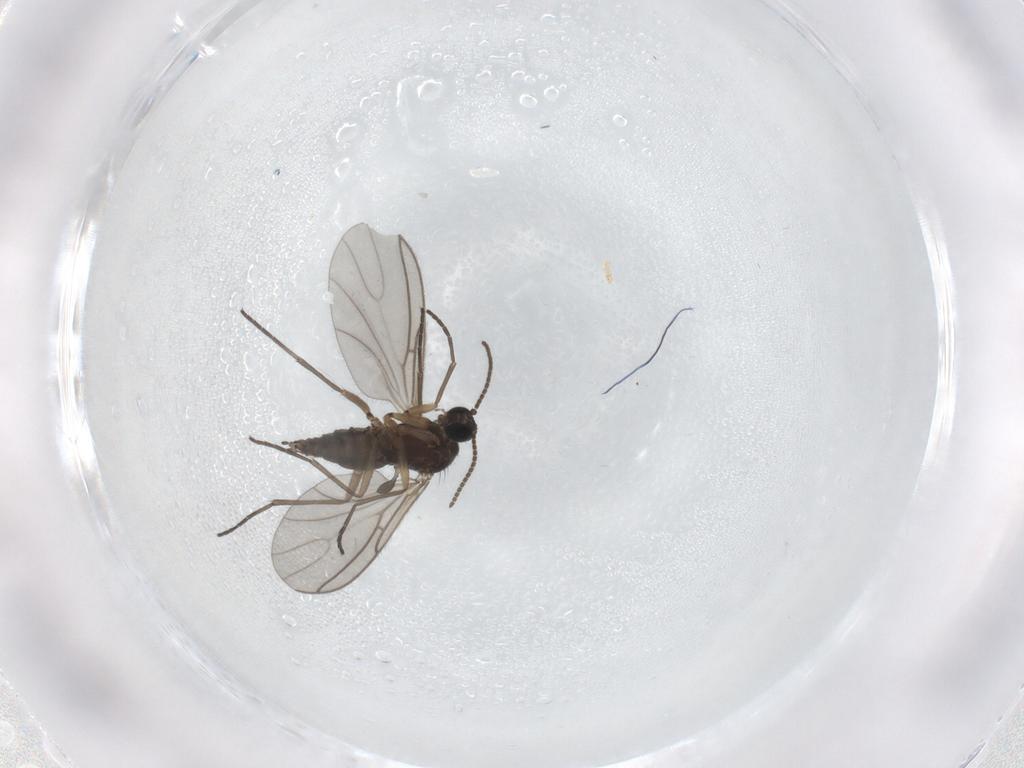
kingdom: Animalia
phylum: Arthropoda
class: Insecta
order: Diptera
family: Sciaridae
